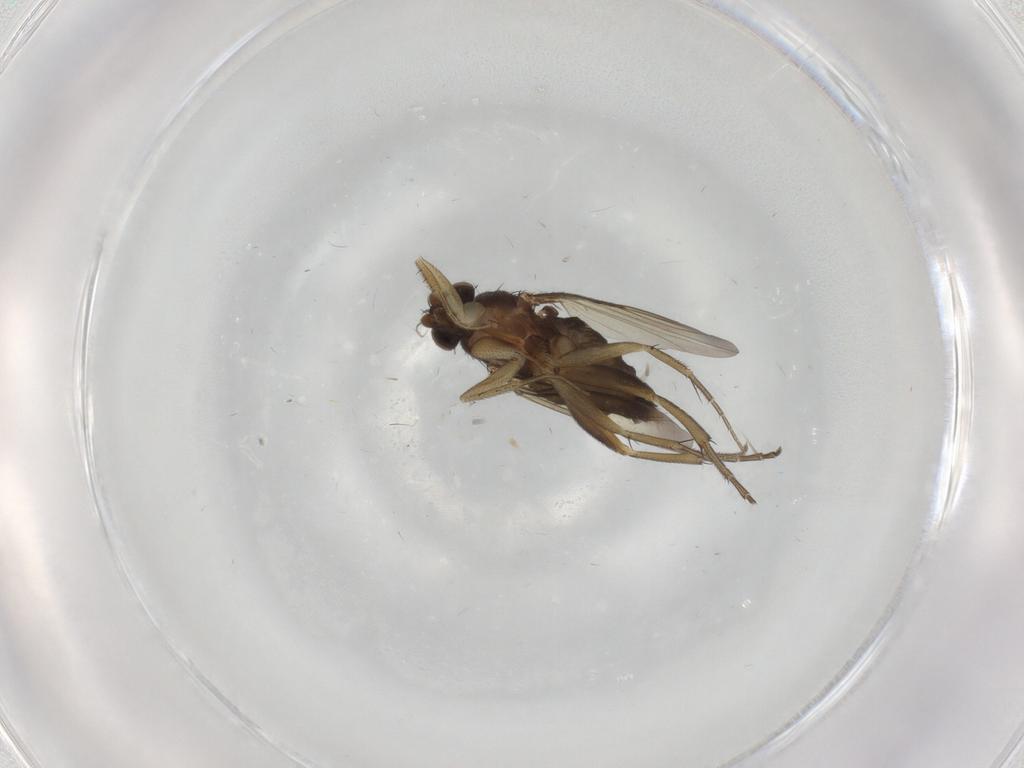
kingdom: Animalia
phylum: Arthropoda
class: Insecta
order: Diptera
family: Phoridae
